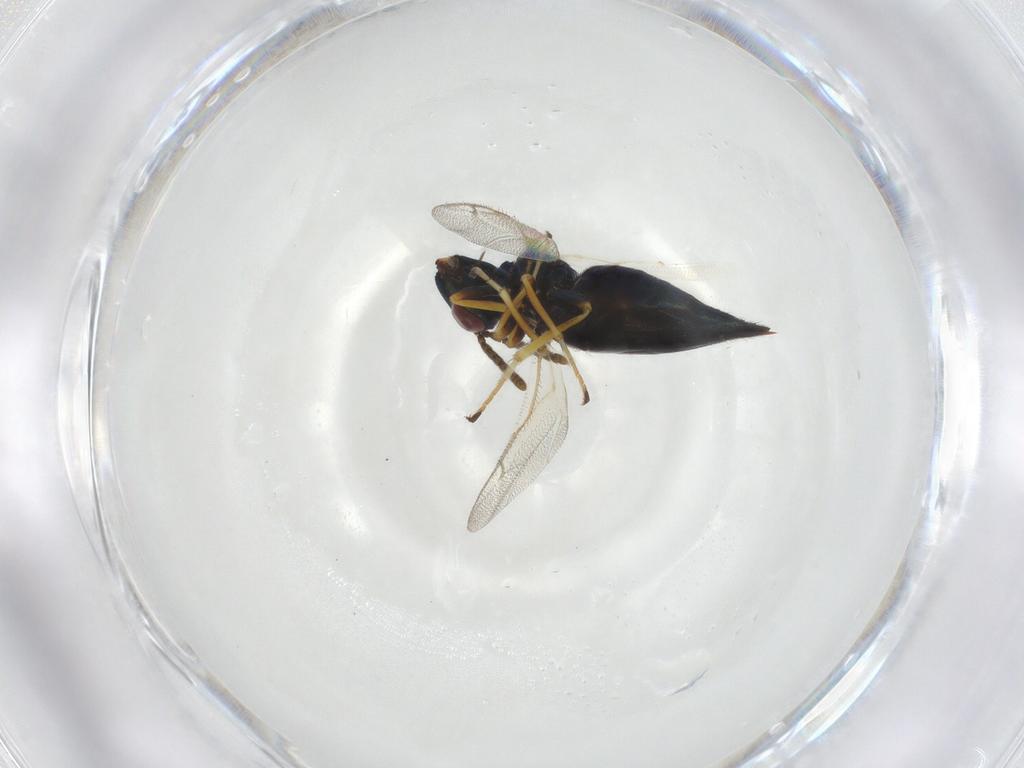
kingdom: Animalia
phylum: Arthropoda
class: Insecta
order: Hymenoptera
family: Pteromalidae
